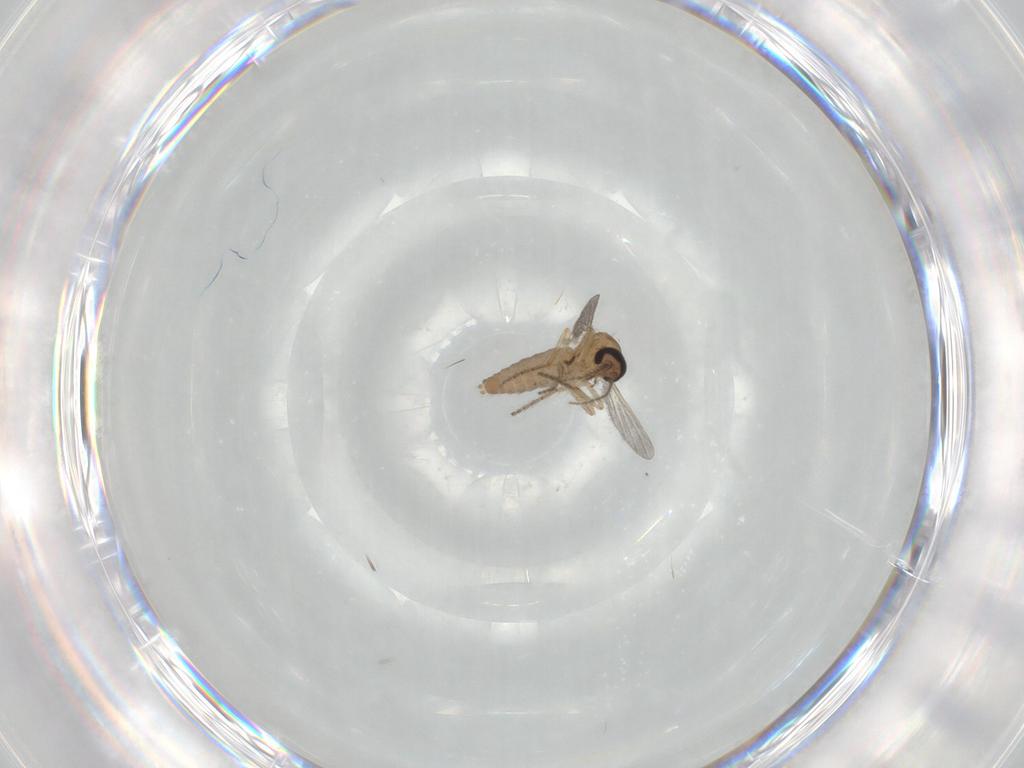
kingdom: Animalia
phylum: Arthropoda
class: Insecta
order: Diptera
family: Ceratopogonidae
